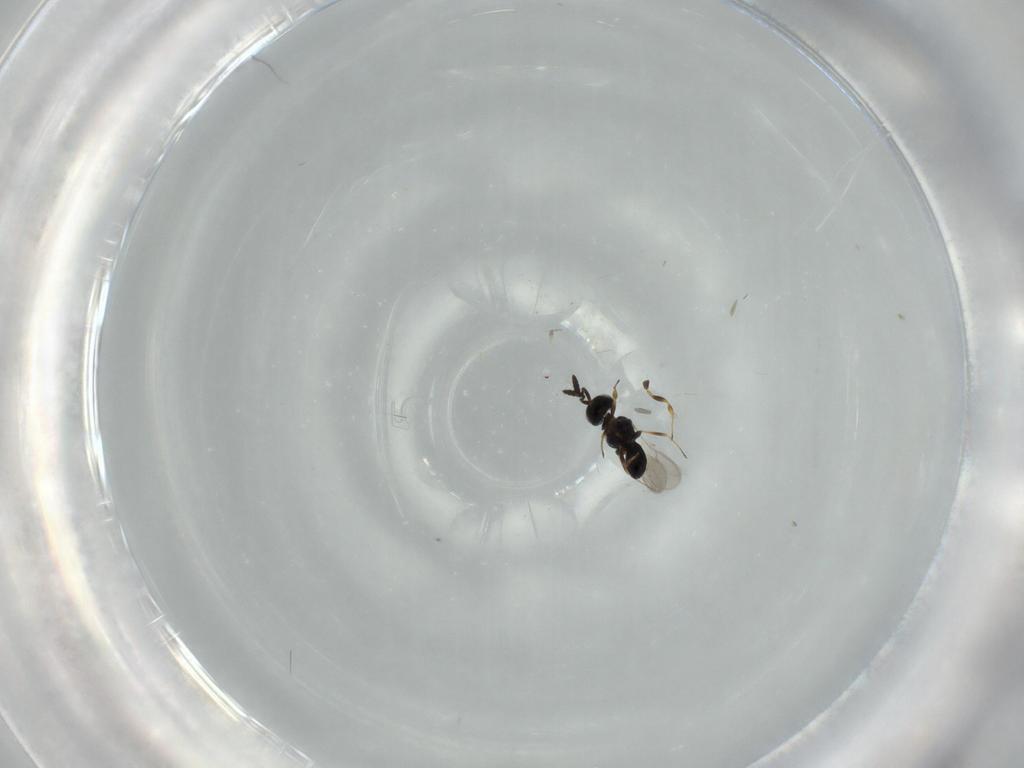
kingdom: Animalia
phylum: Arthropoda
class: Insecta
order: Hymenoptera
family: Scelionidae
